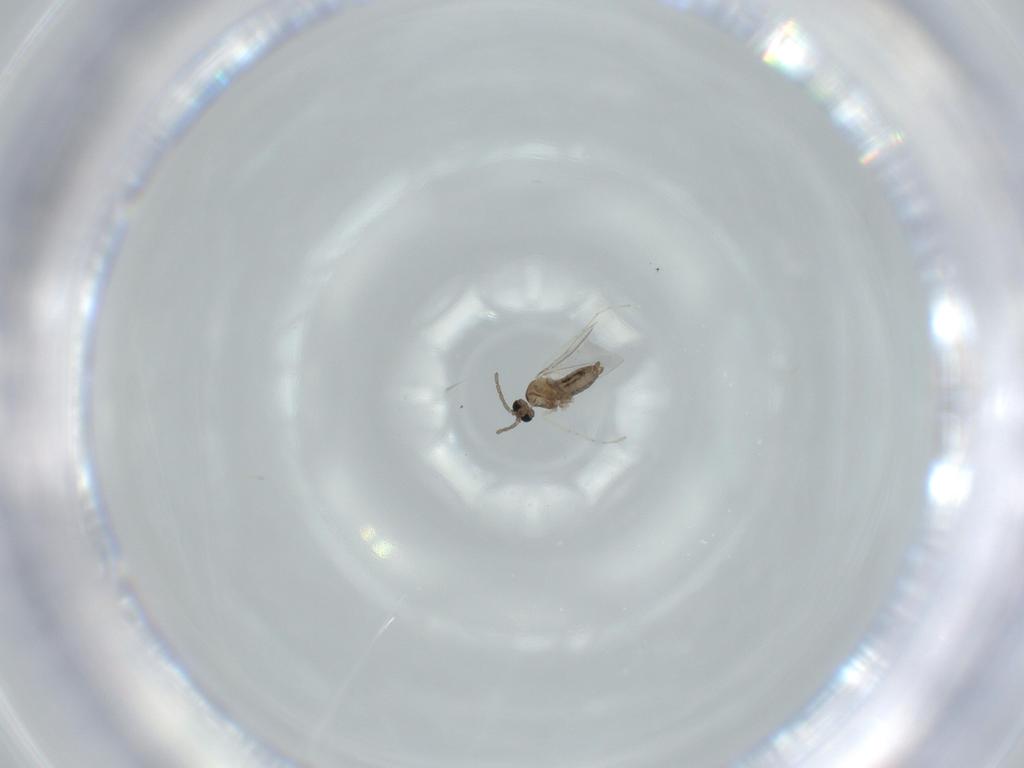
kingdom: Animalia
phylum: Arthropoda
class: Insecta
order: Diptera
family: Cecidomyiidae
